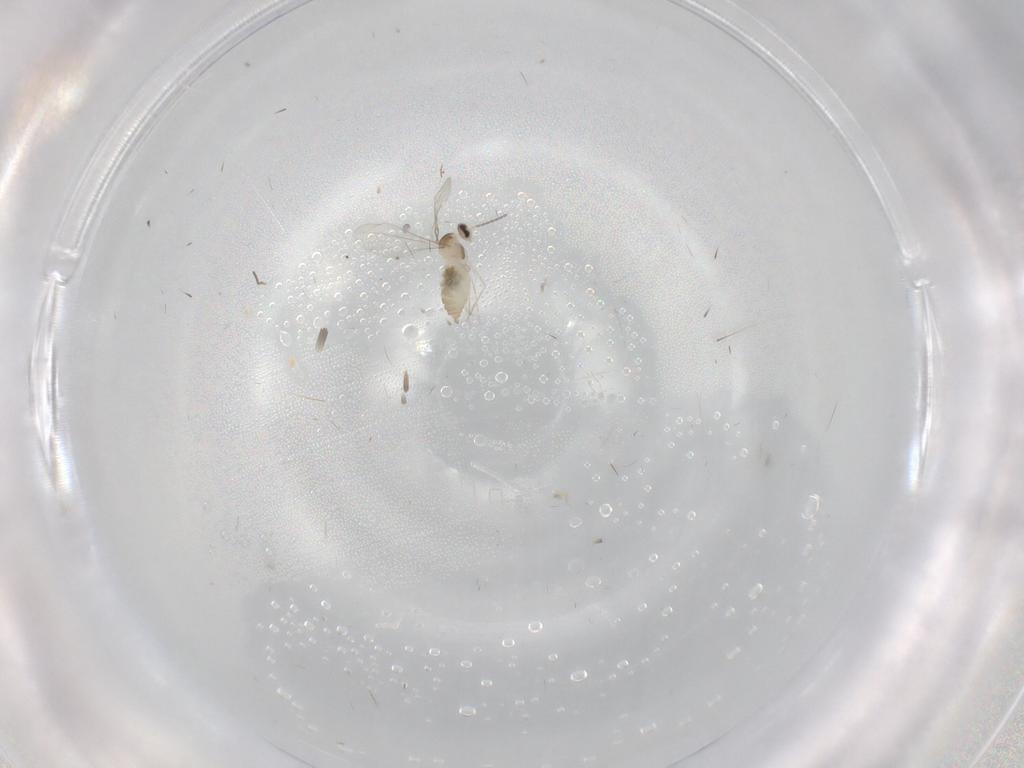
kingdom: Animalia
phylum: Arthropoda
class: Insecta
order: Diptera
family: Cecidomyiidae
